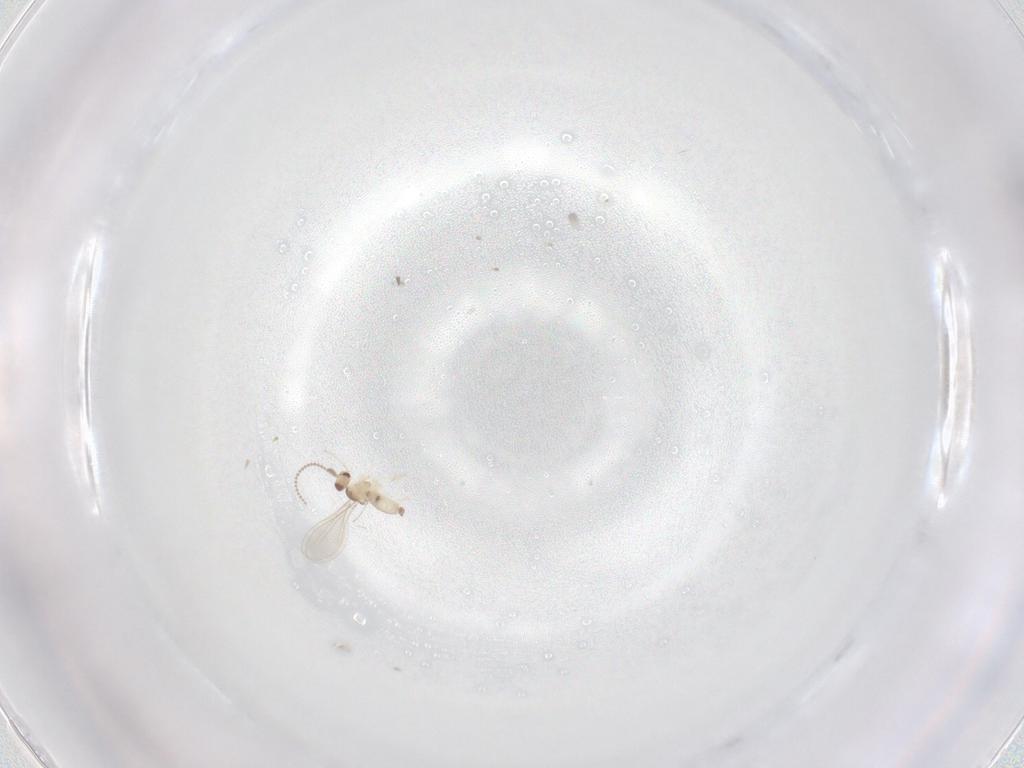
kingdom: Animalia
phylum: Arthropoda
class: Insecta
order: Diptera
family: Cecidomyiidae
